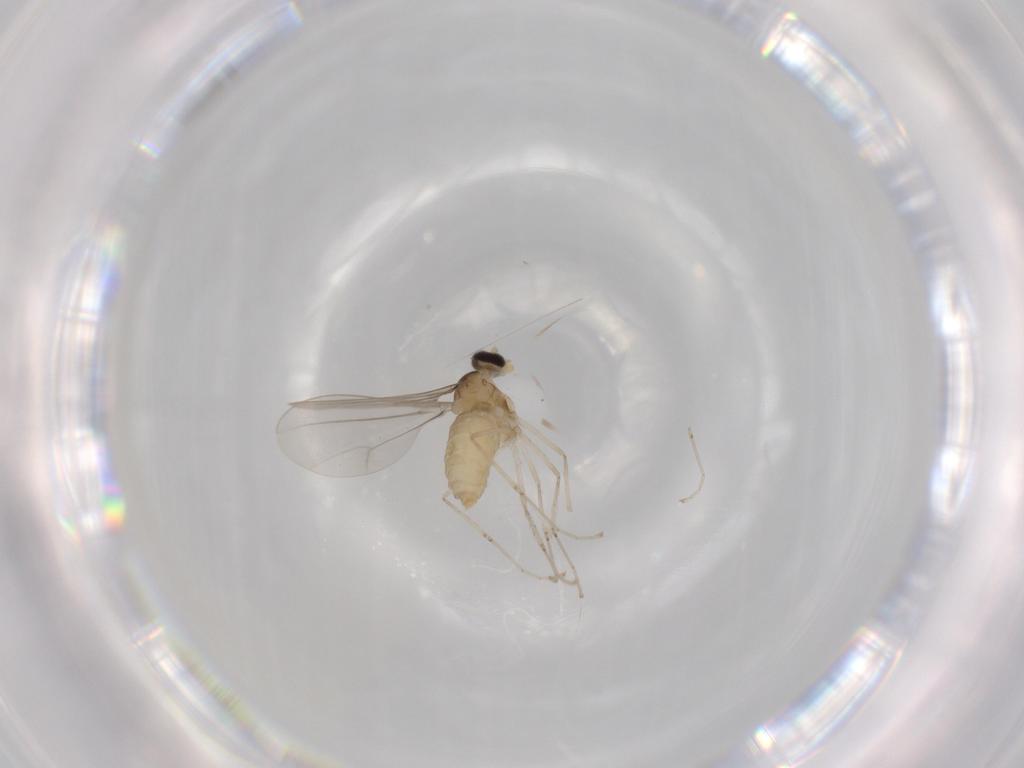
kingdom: Animalia
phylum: Arthropoda
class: Insecta
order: Diptera
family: Cecidomyiidae
